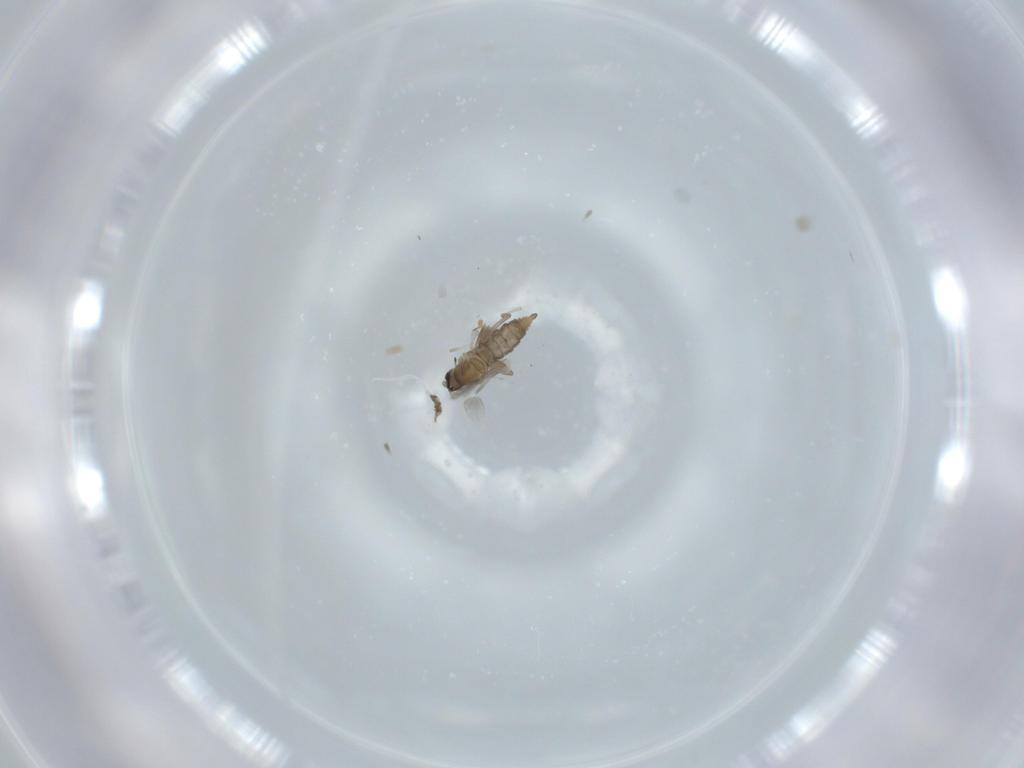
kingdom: Animalia
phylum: Arthropoda
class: Insecta
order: Diptera
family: Cecidomyiidae
